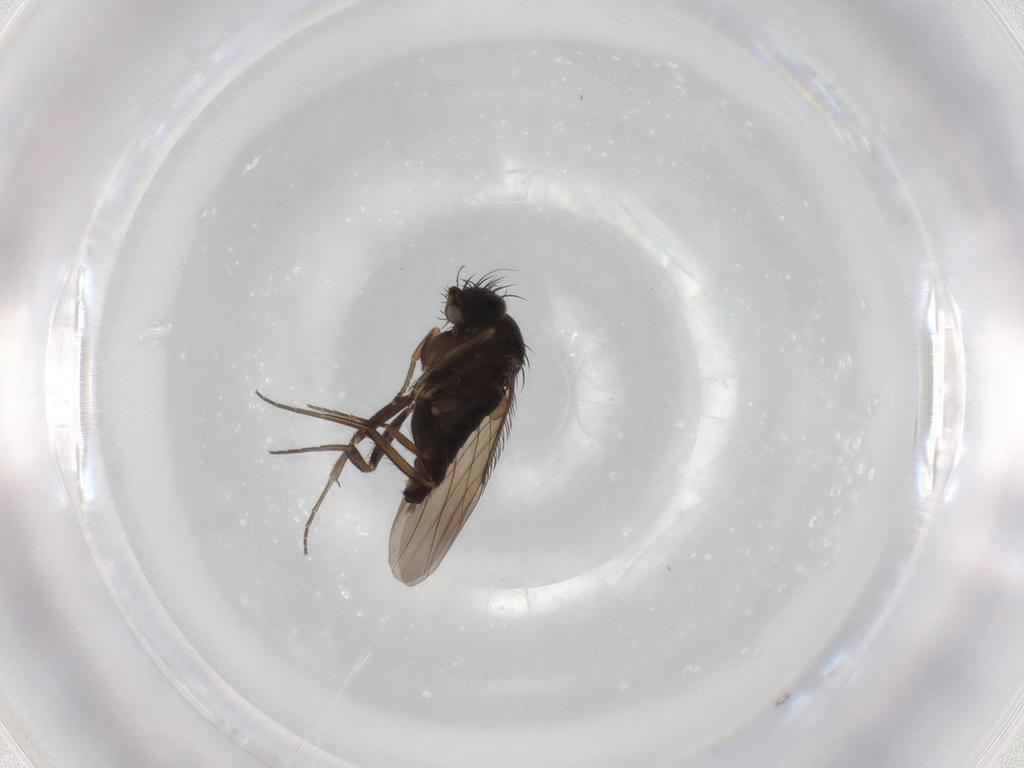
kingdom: Animalia
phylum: Arthropoda
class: Insecta
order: Diptera
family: Phoridae
